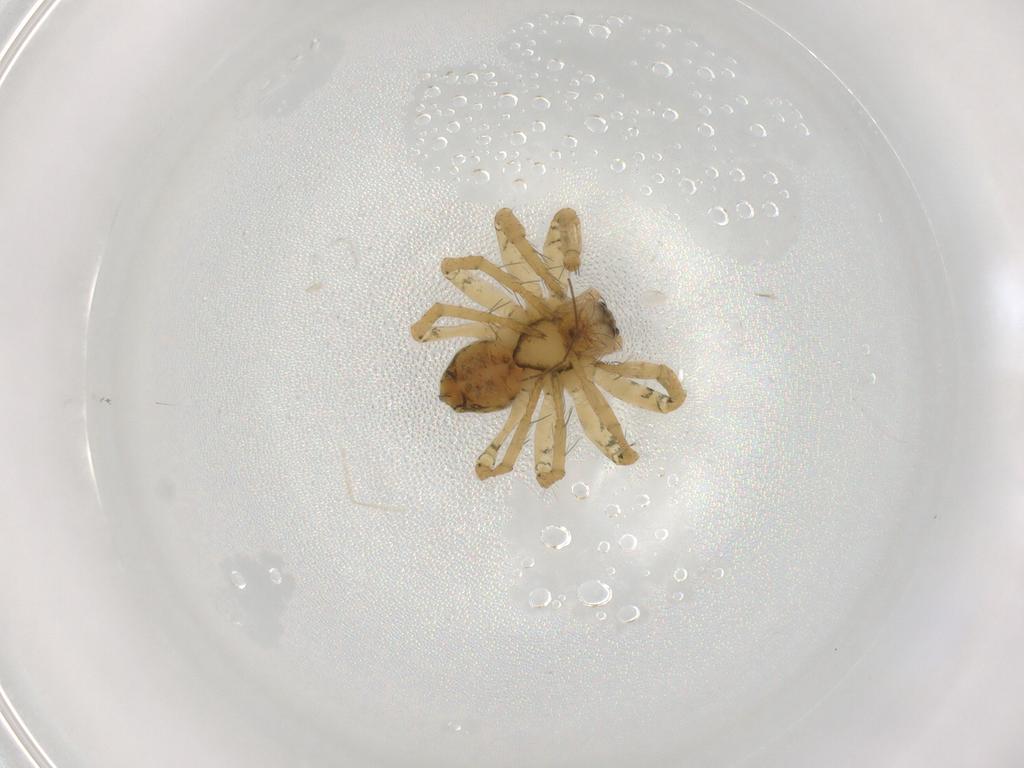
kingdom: Animalia
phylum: Arthropoda
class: Arachnida
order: Araneae
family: Pisauridae
